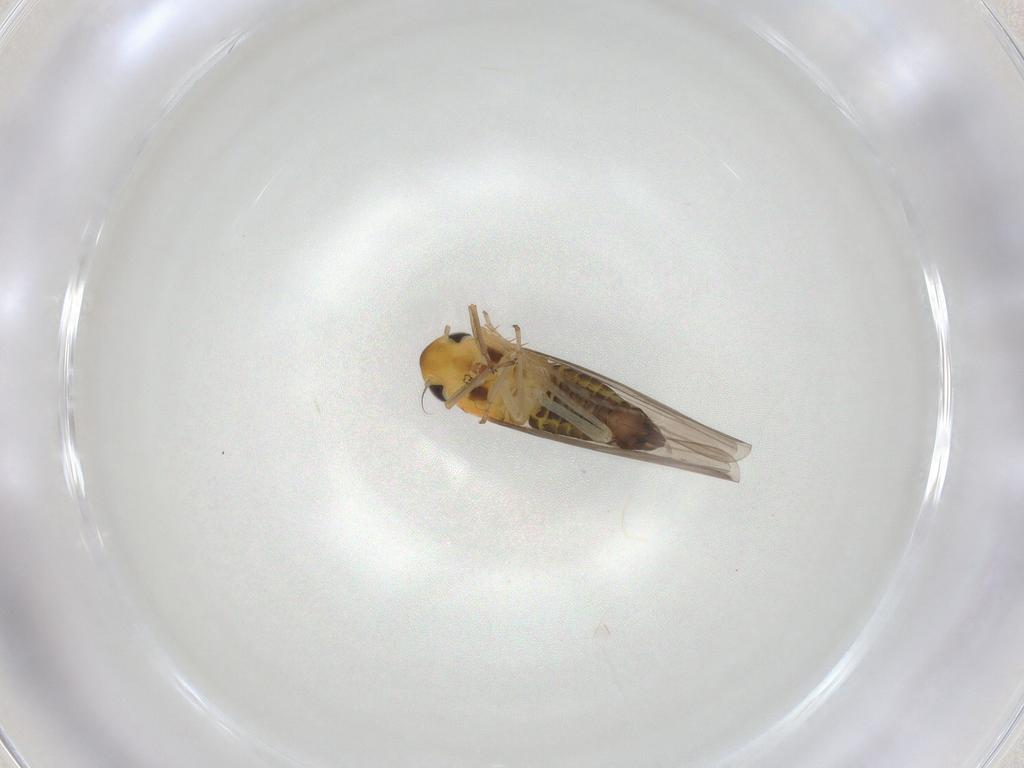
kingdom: Animalia
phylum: Arthropoda
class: Insecta
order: Hemiptera
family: Cicadellidae
